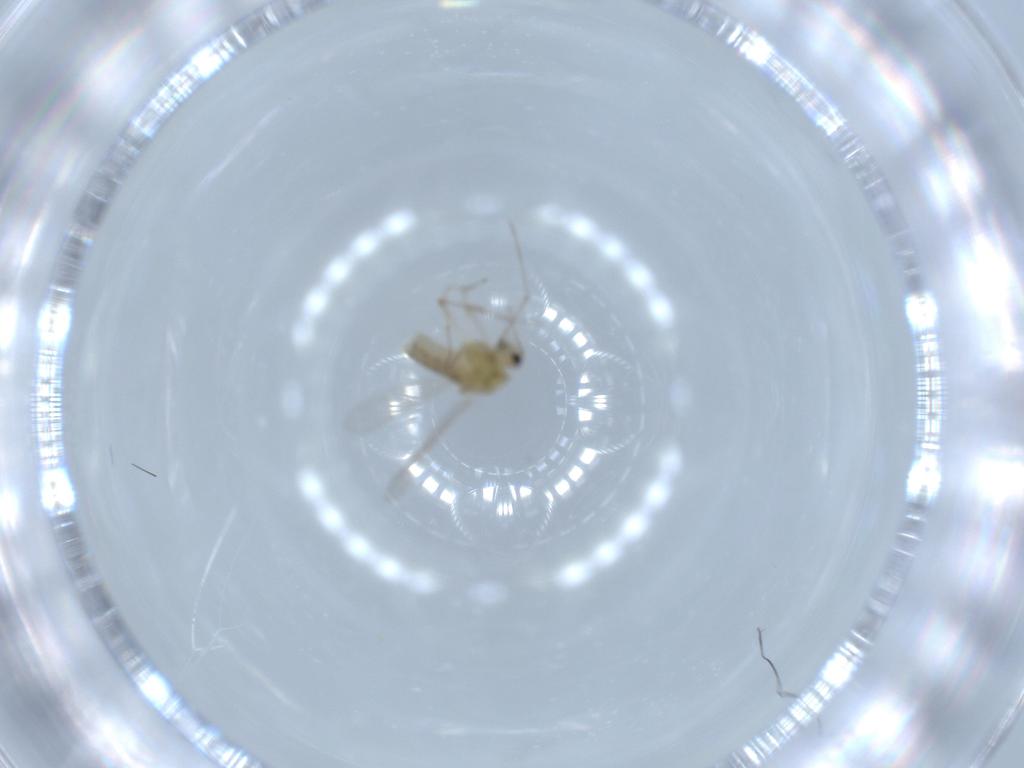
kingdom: Animalia
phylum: Arthropoda
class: Insecta
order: Diptera
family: Chironomidae
